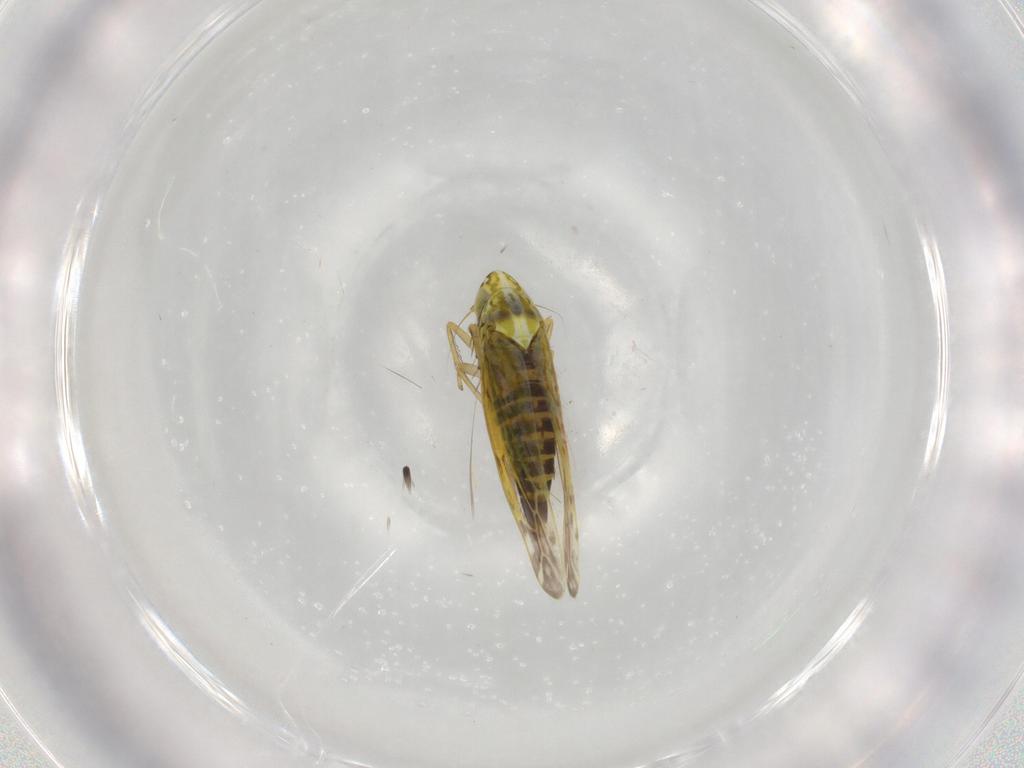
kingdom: Animalia
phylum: Arthropoda
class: Insecta
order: Hemiptera
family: Cicadellidae
